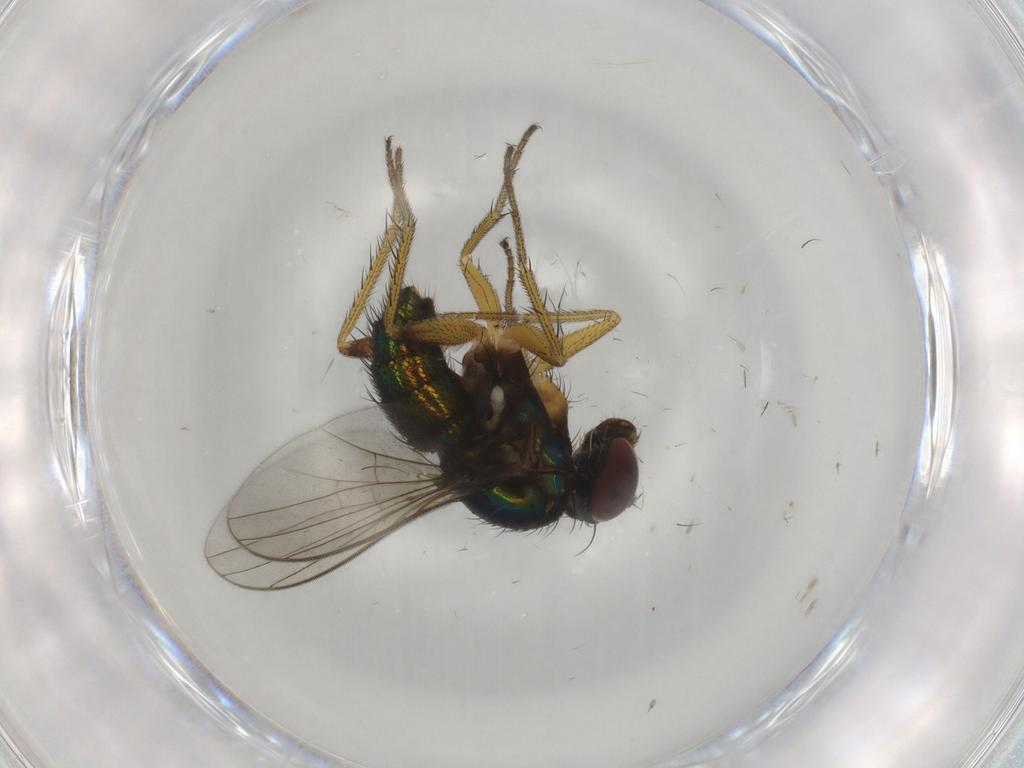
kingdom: Animalia
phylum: Arthropoda
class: Insecta
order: Diptera
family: Dolichopodidae
